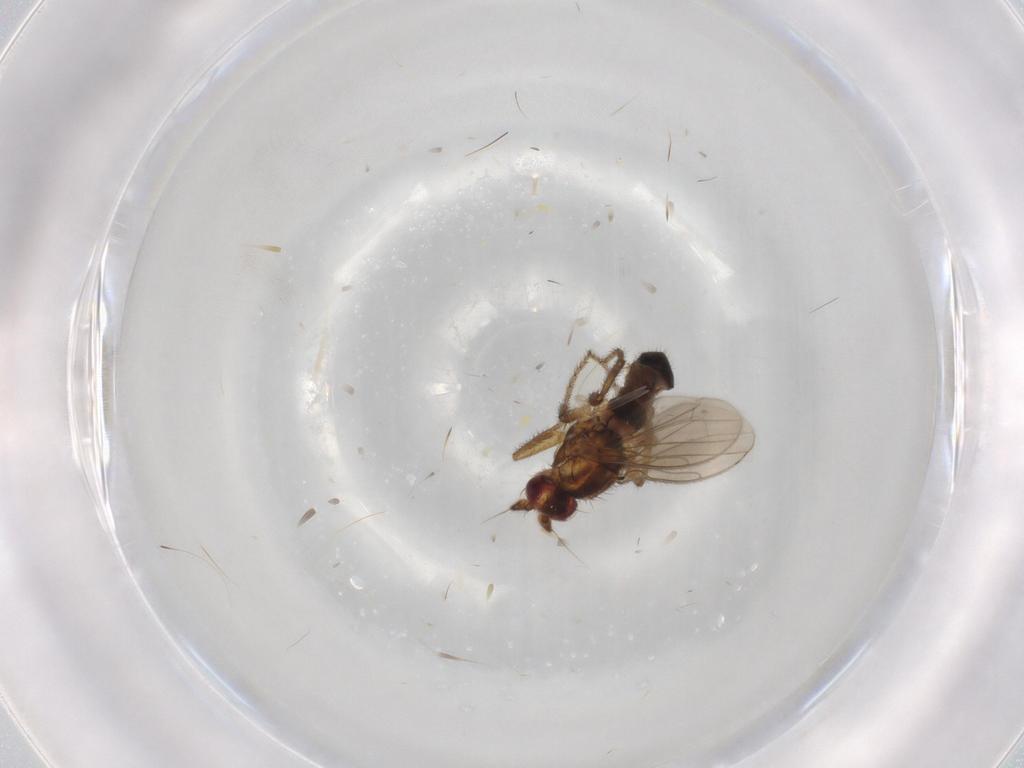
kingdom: Animalia
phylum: Arthropoda
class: Insecta
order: Diptera
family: Sphaeroceridae
